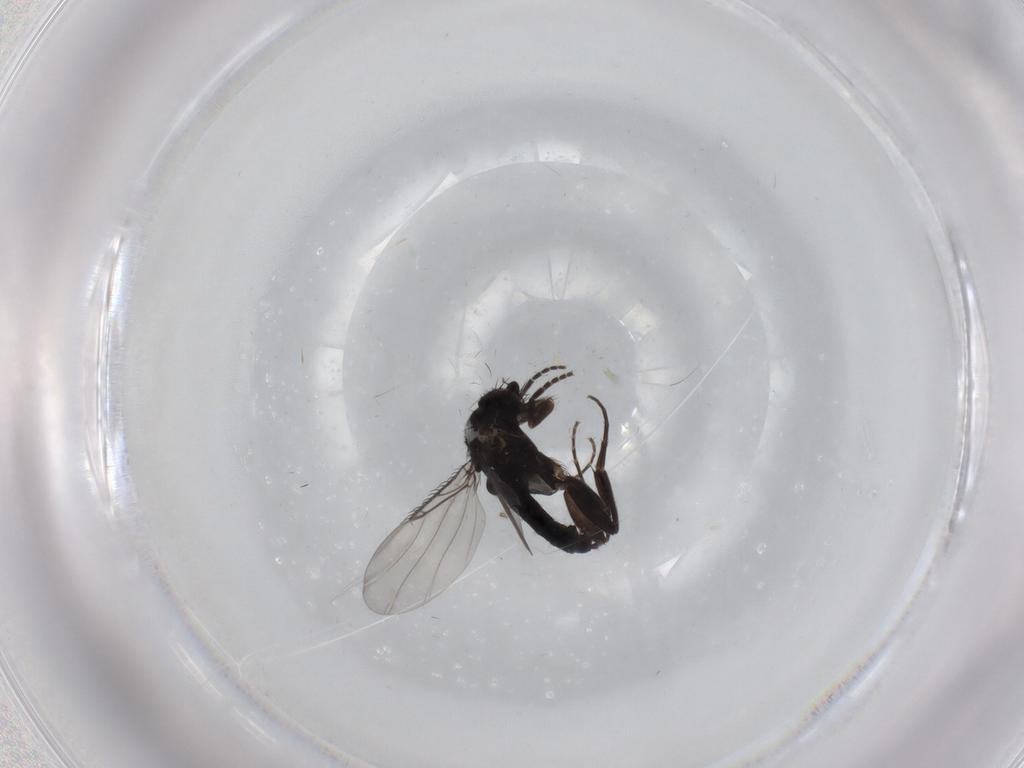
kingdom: Animalia
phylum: Arthropoda
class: Insecta
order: Diptera
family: Phoridae
